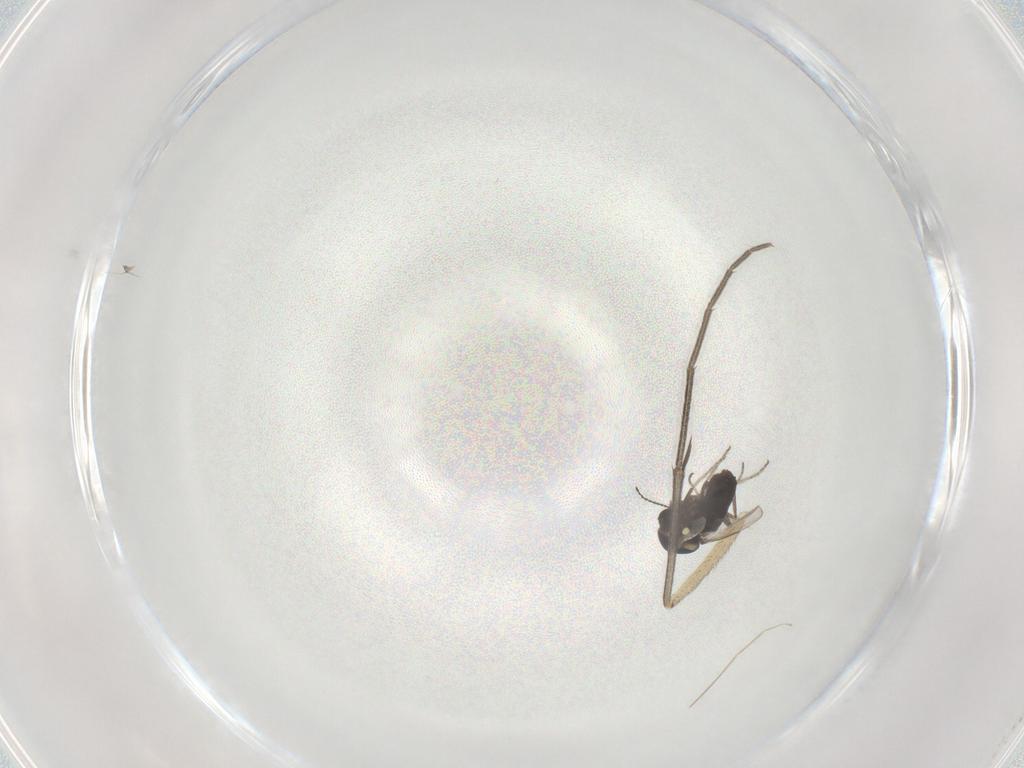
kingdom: Animalia
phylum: Arthropoda
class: Insecta
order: Diptera
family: Ceratopogonidae
